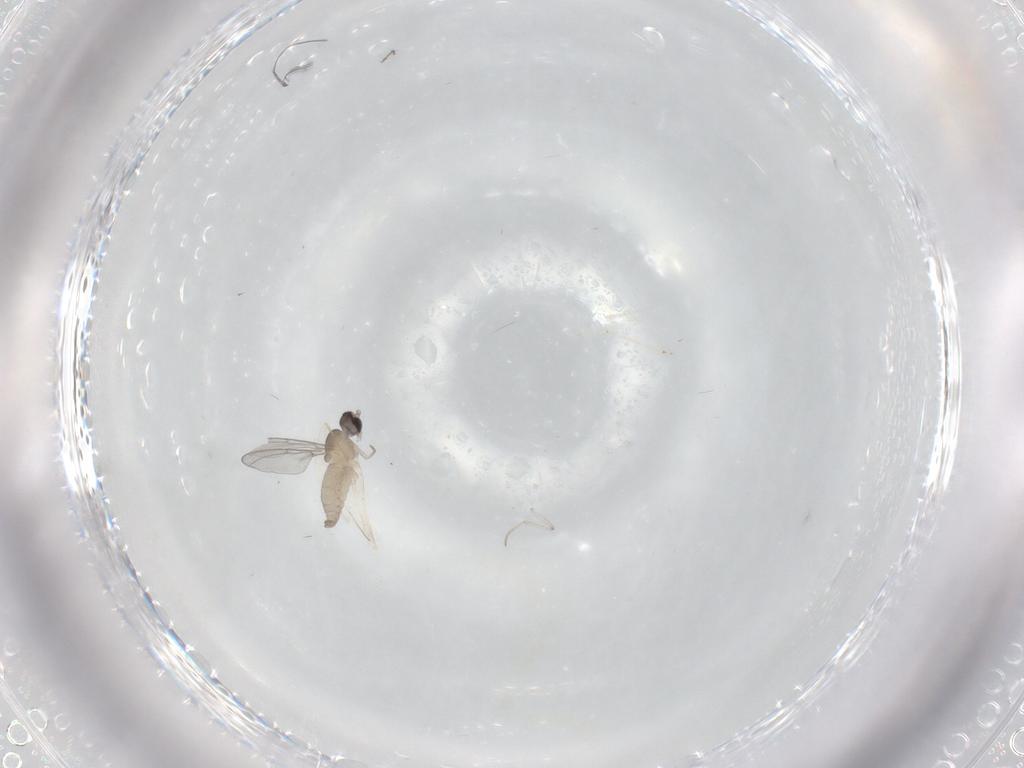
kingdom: Animalia
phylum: Arthropoda
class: Insecta
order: Diptera
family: Cecidomyiidae
